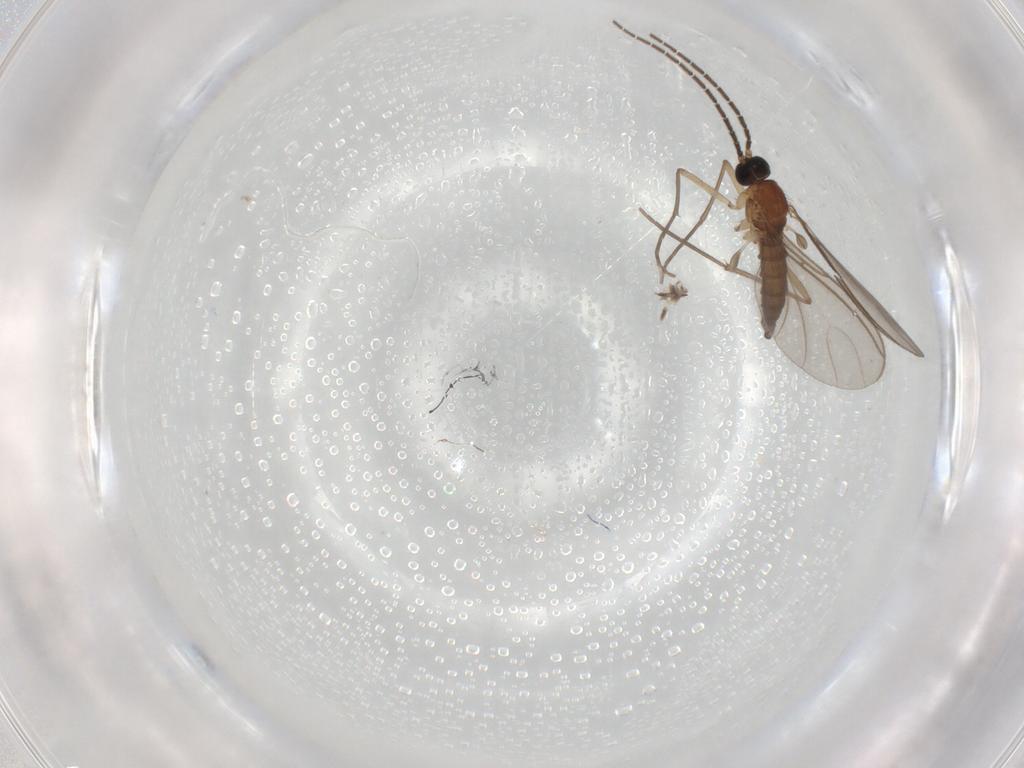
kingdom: Animalia
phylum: Arthropoda
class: Insecta
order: Diptera
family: Sciaridae
